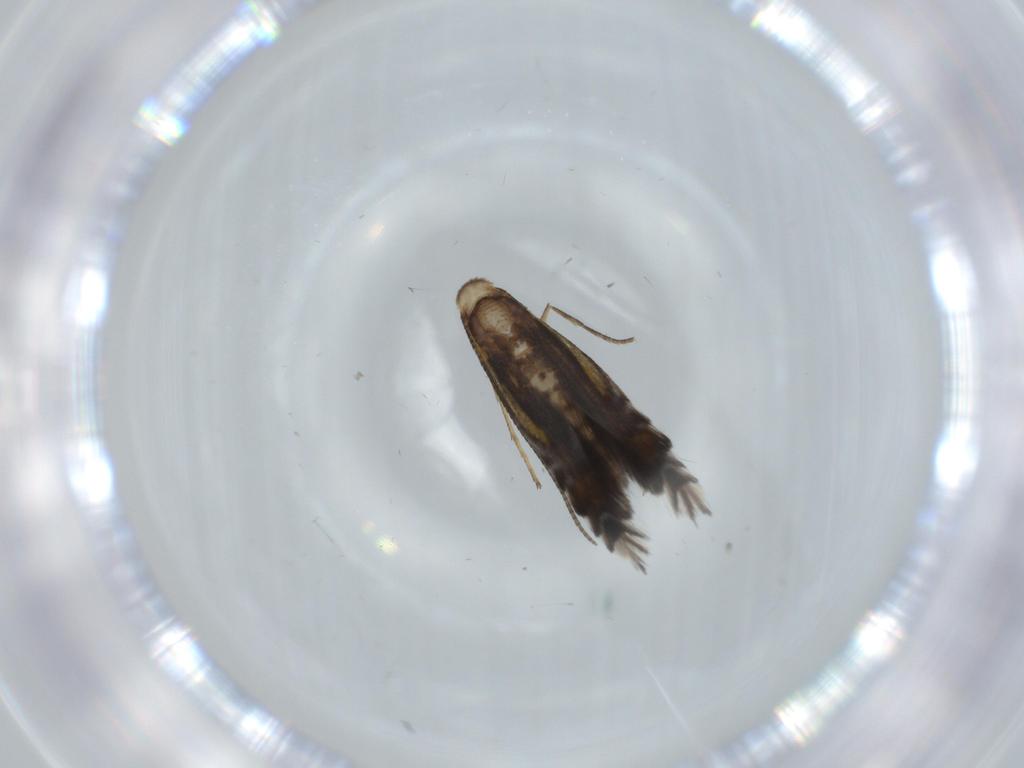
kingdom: Animalia
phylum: Arthropoda
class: Insecta
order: Lepidoptera
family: Gracillariidae
